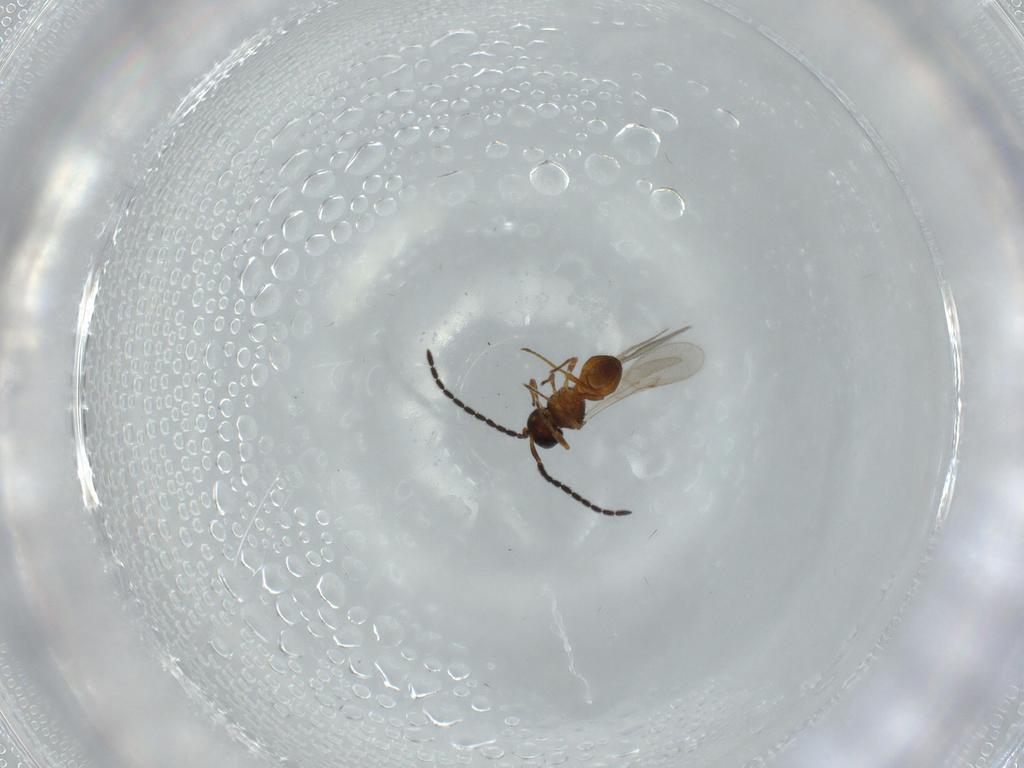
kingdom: Animalia
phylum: Arthropoda
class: Insecta
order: Hymenoptera
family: Scelionidae
